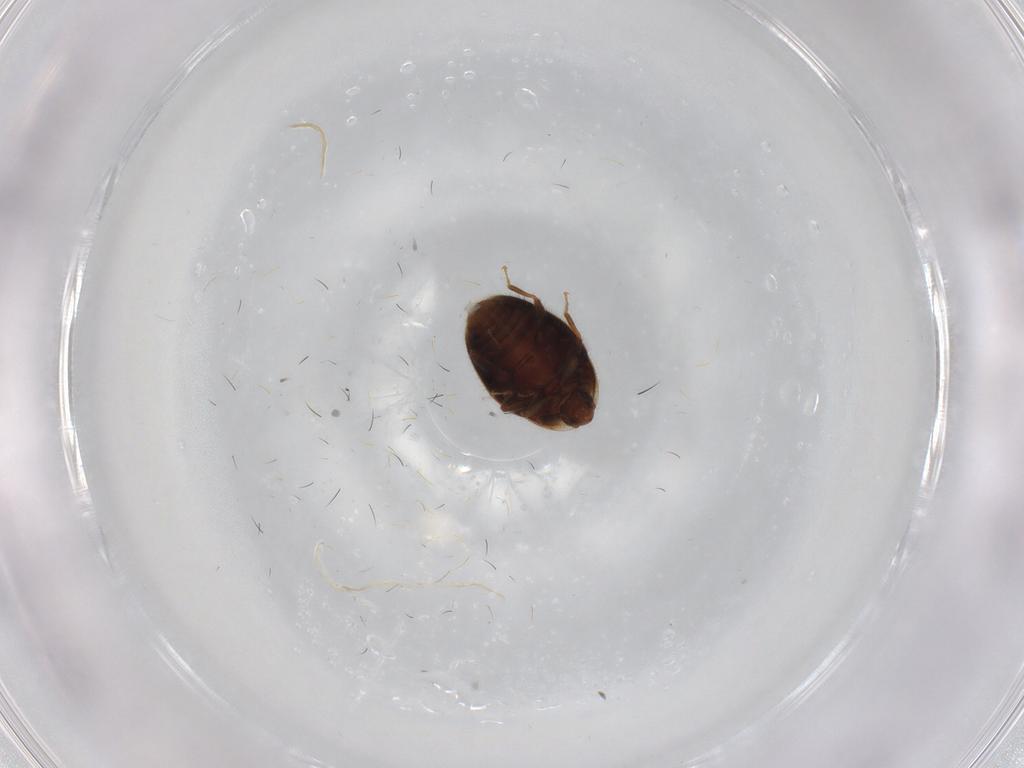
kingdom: Animalia
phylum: Arthropoda
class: Insecta
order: Coleoptera
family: Corylophidae
